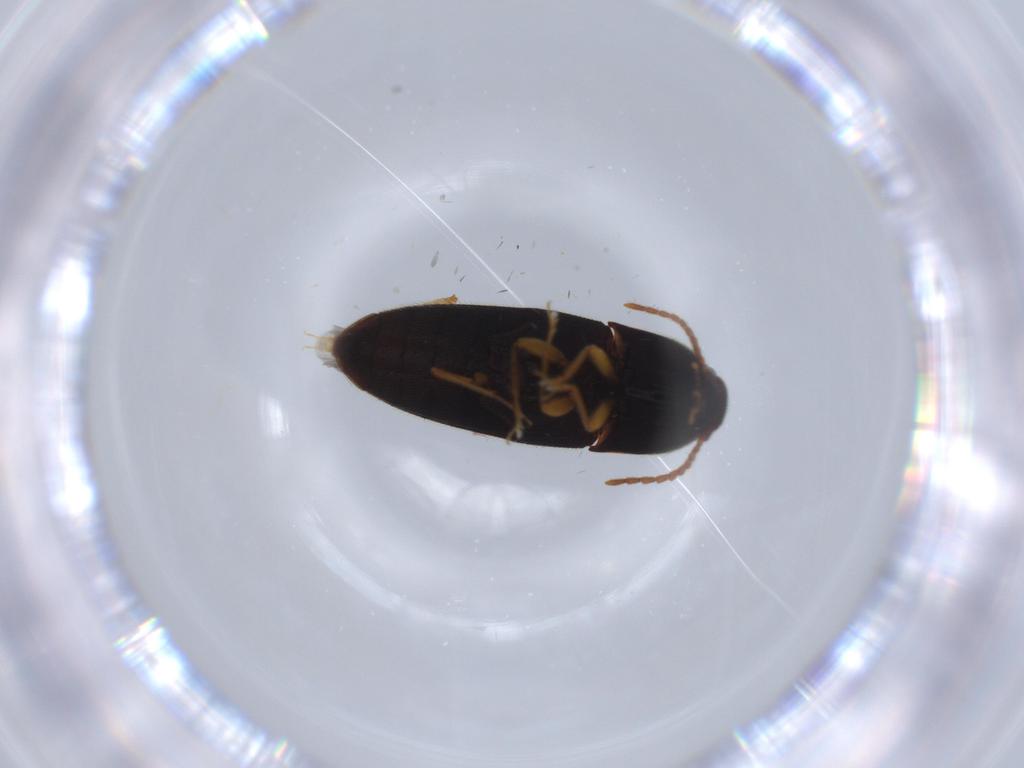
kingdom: Animalia
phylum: Arthropoda
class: Insecta
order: Coleoptera
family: Elateridae
